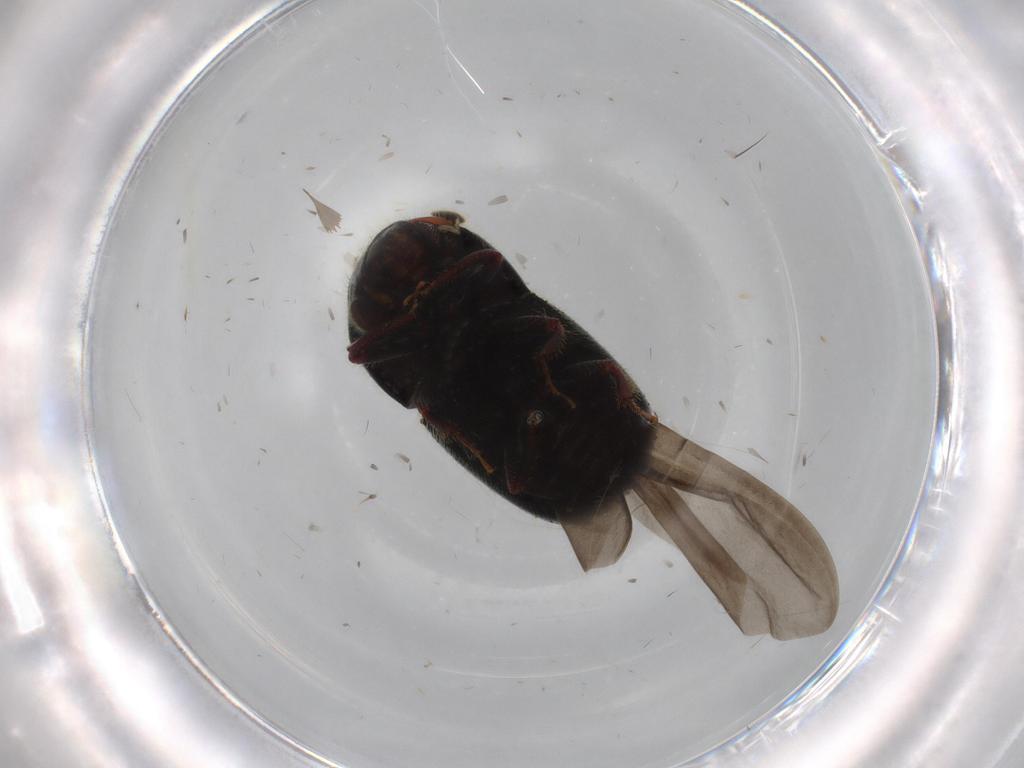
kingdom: Animalia
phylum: Arthropoda
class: Insecta
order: Coleoptera
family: Curculionidae
